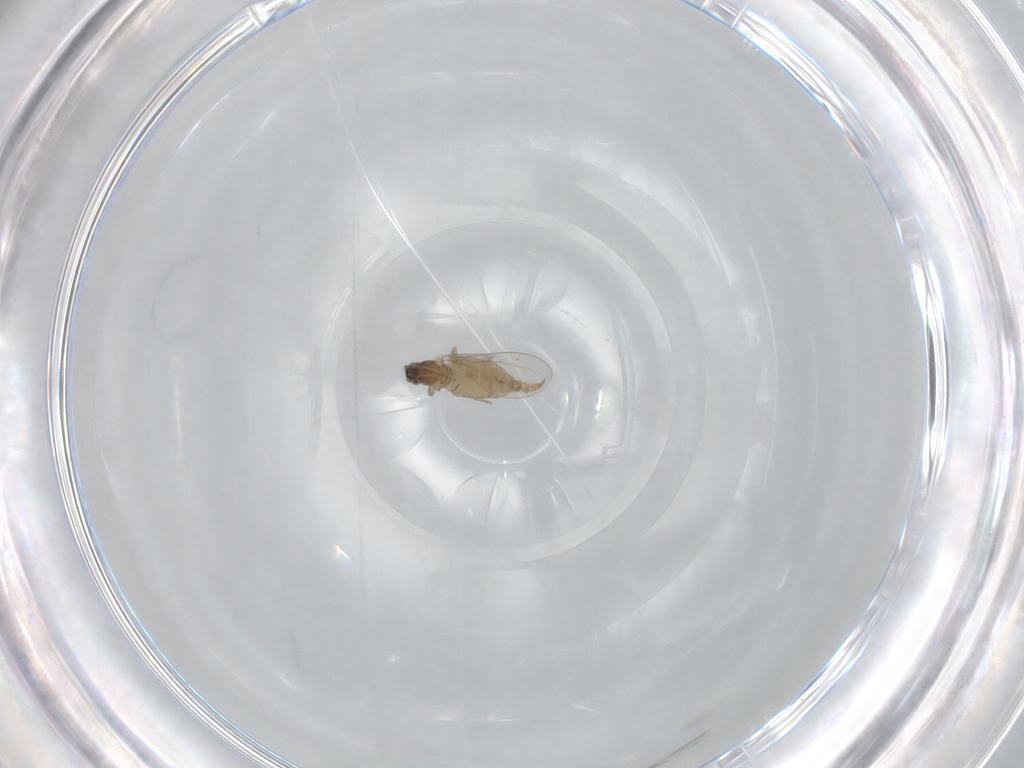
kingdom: Animalia
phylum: Arthropoda
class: Insecta
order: Diptera
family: Cecidomyiidae
